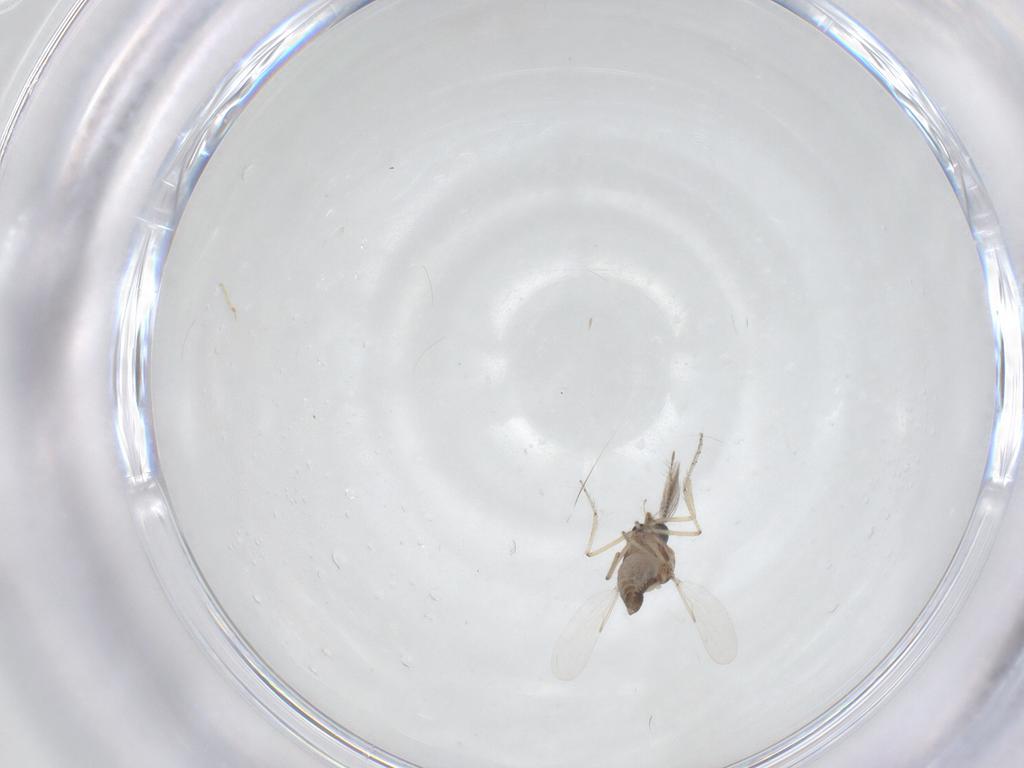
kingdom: Animalia
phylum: Arthropoda
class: Insecta
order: Diptera
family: Ceratopogonidae
